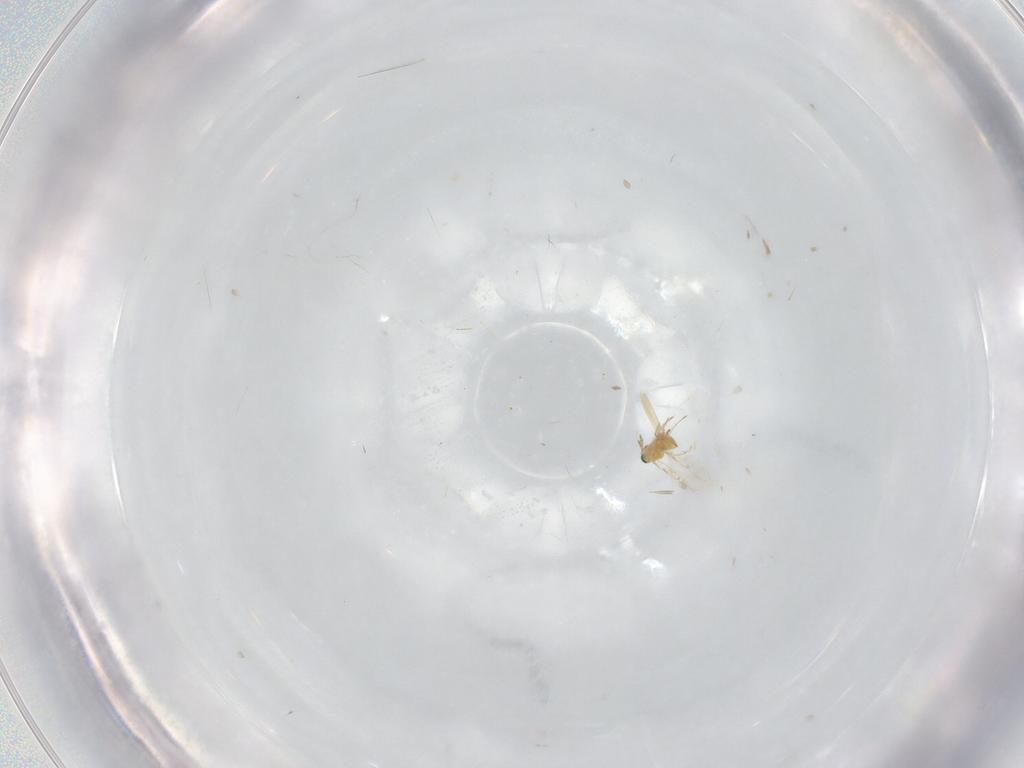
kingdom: Animalia
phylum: Arthropoda
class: Insecta
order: Hymenoptera
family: Trichogrammatidae
